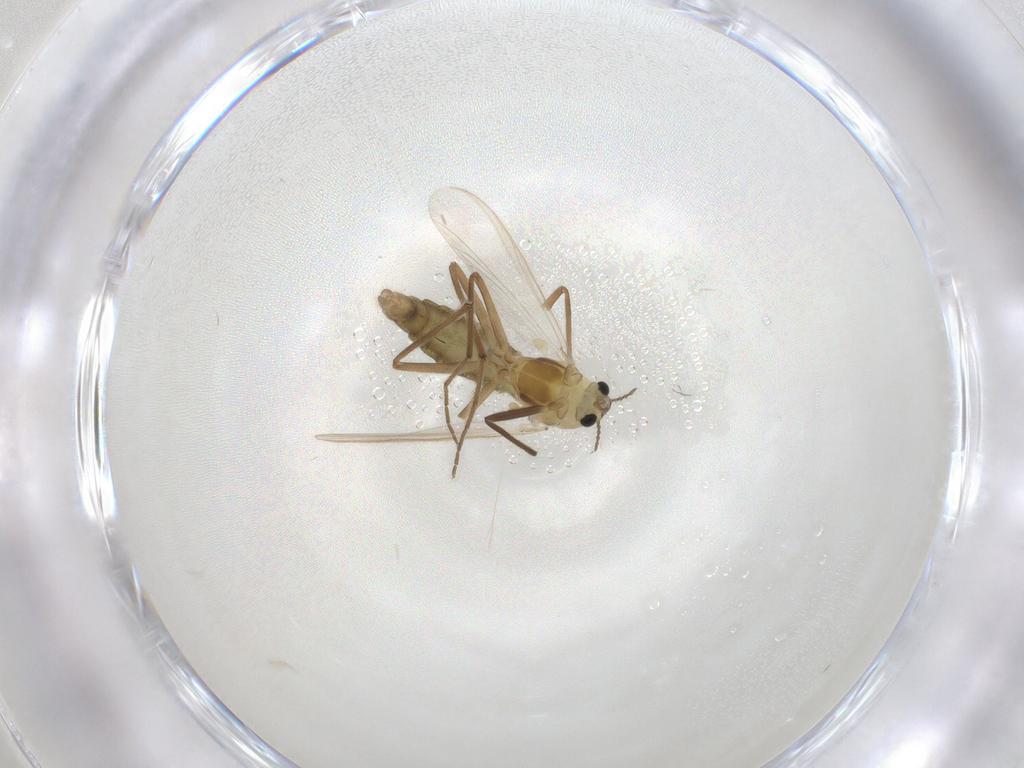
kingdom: Animalia
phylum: Arthropoda
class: Insecta
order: Diptera
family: Chironomidae
